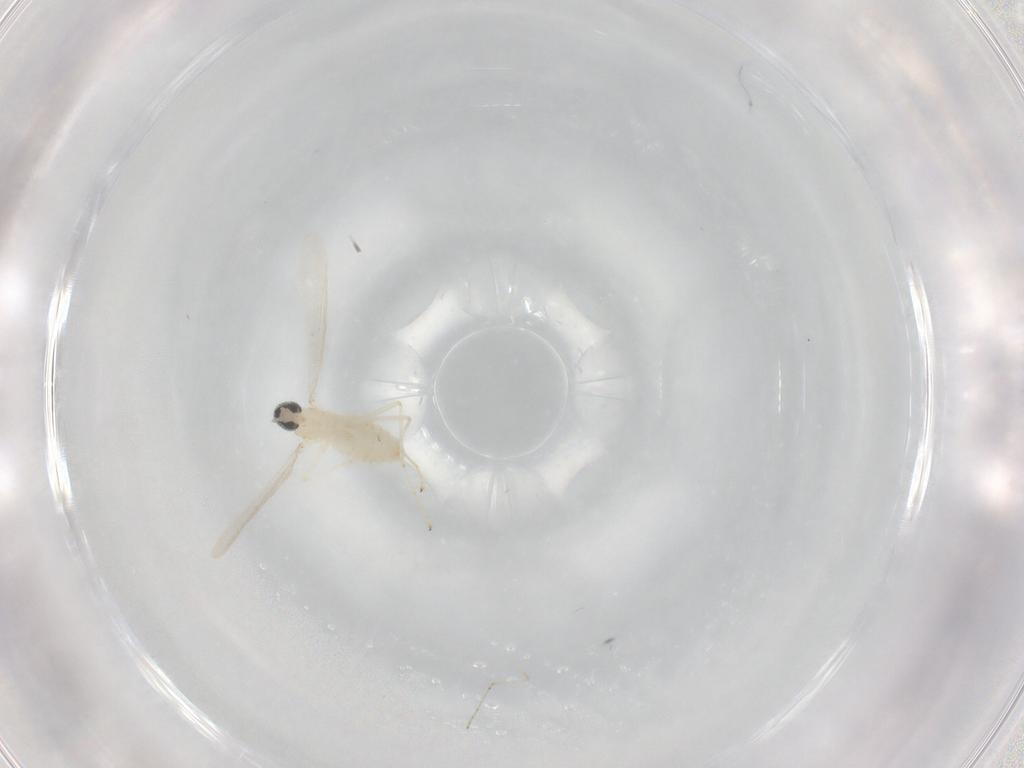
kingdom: Animalia
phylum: Arthropoda
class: Insecta
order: Diptera
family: Cecidomyiidae
